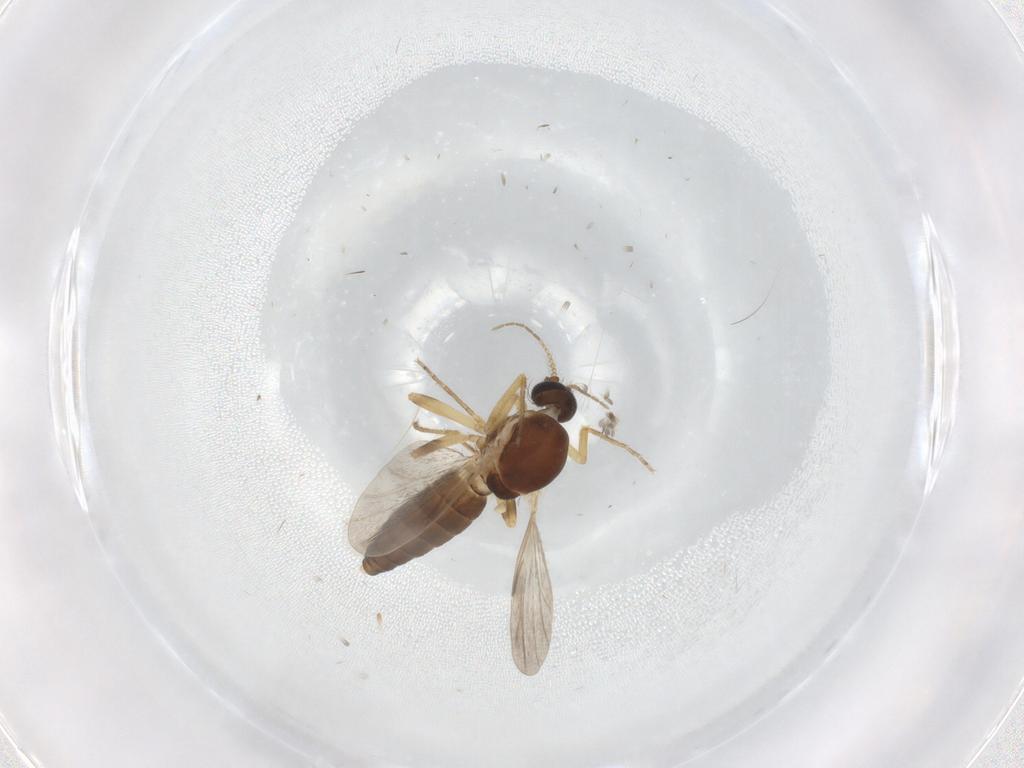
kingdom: Animalia
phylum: Arthropoda
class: Insecta
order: Diptera
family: Ceratopogonidae
